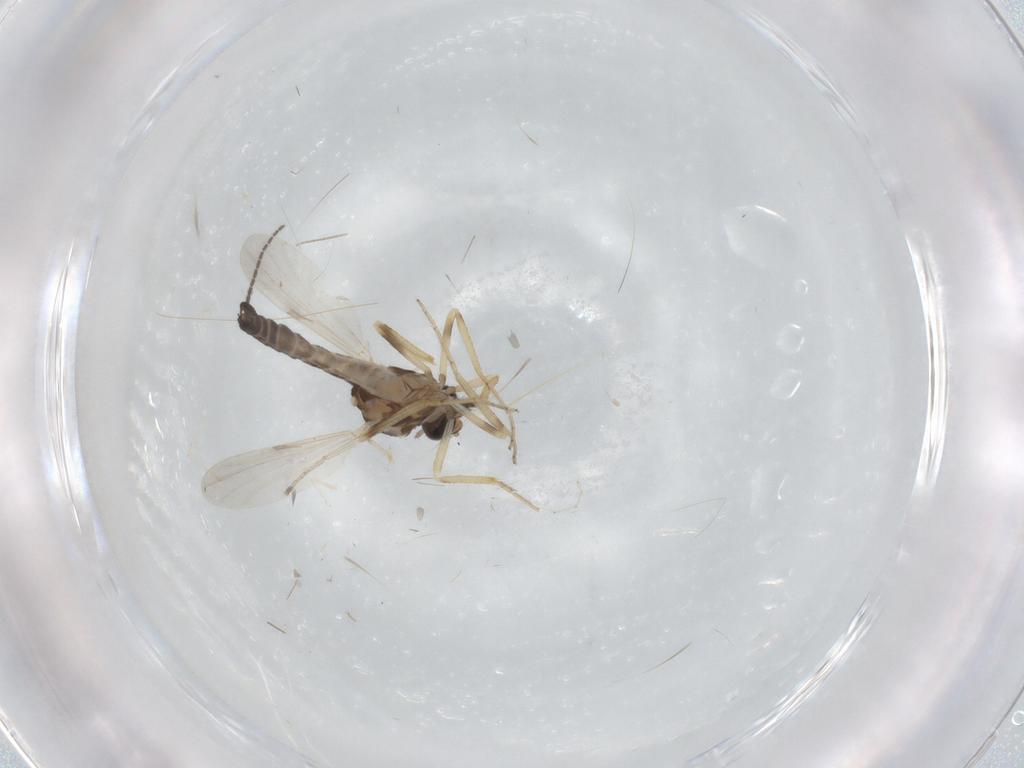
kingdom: Animalia
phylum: Arthropoda
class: Insecta
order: Diptera
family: Ceratopogonidae
